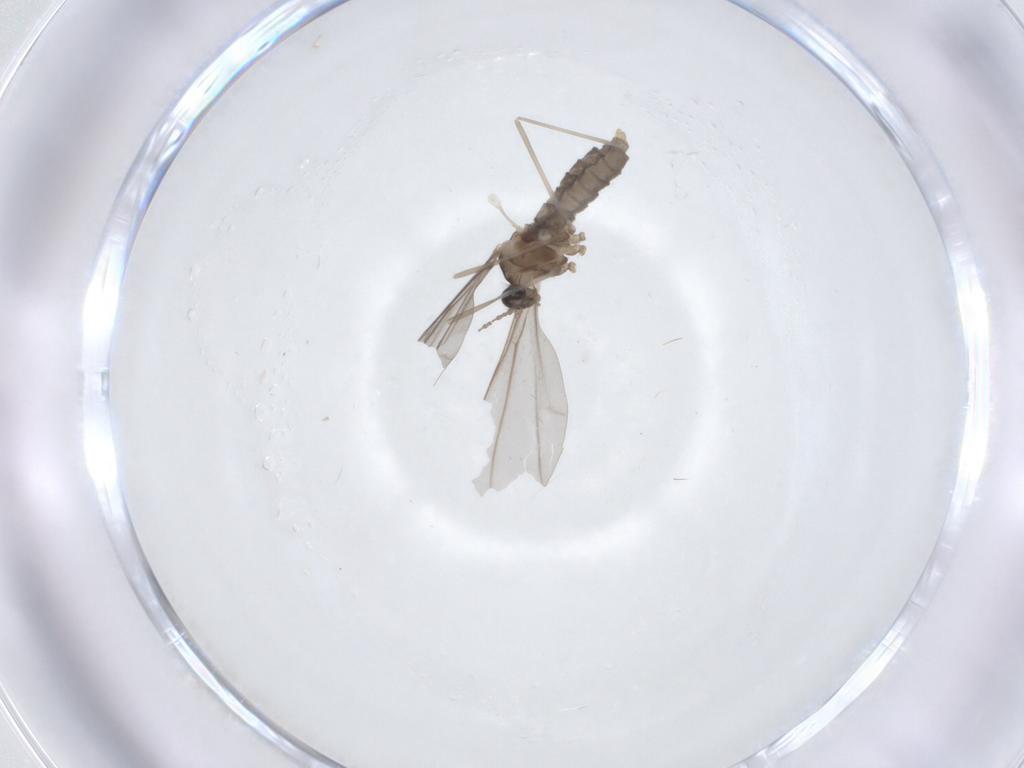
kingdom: Animalia
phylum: Arthropoda
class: Insecta
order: Diptera
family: Cecidomyiidae
